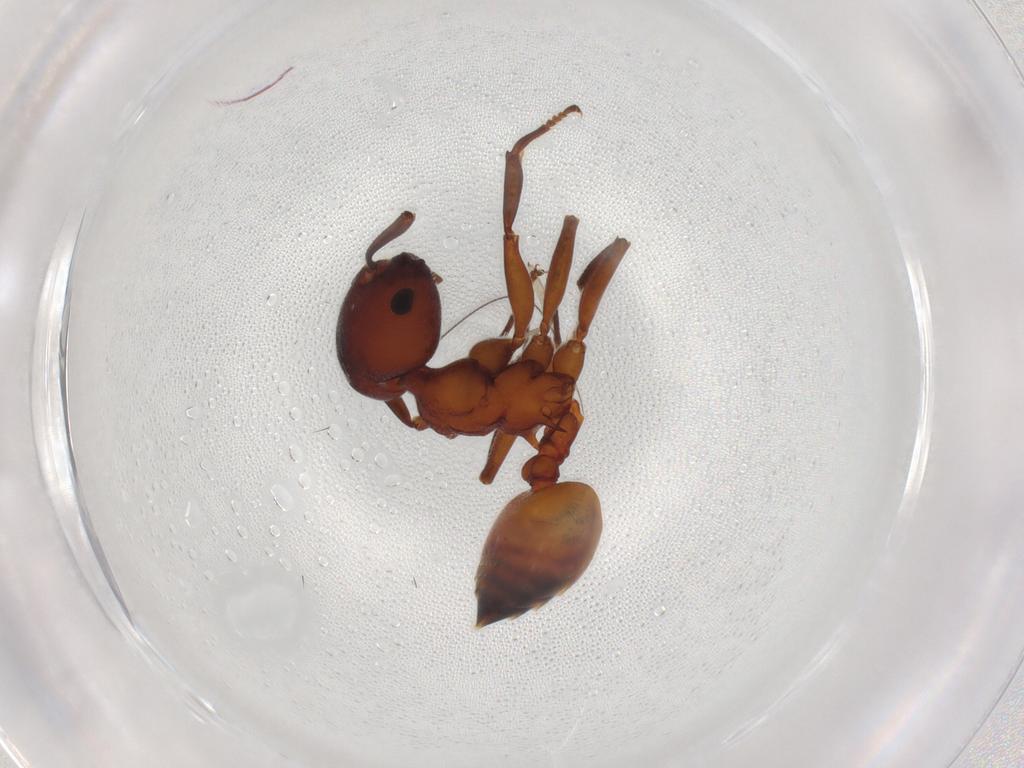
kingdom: Animalia
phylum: Arthropoda
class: Insecta
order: Hymenoptera
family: Formicidae
